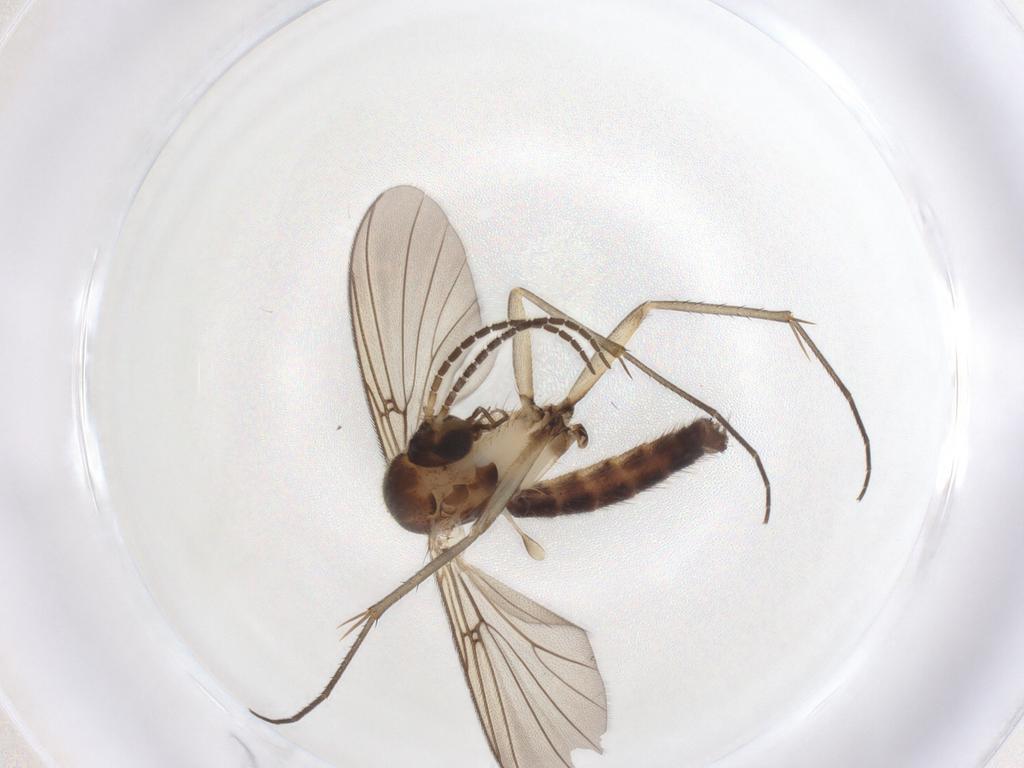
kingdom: Animalia
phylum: Arthropoda
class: Insecta
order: Diptera
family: Mycetophilidae
